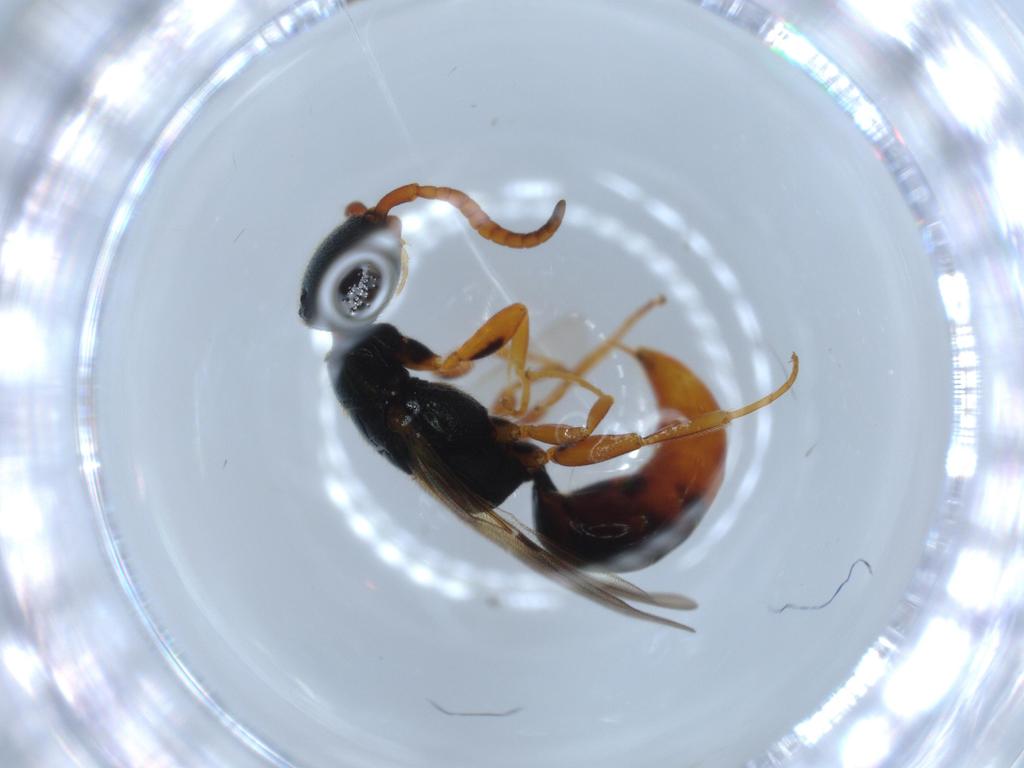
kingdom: Animalia
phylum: Arthropoda
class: Insecta
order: Hymenoptera
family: Bethylidae
